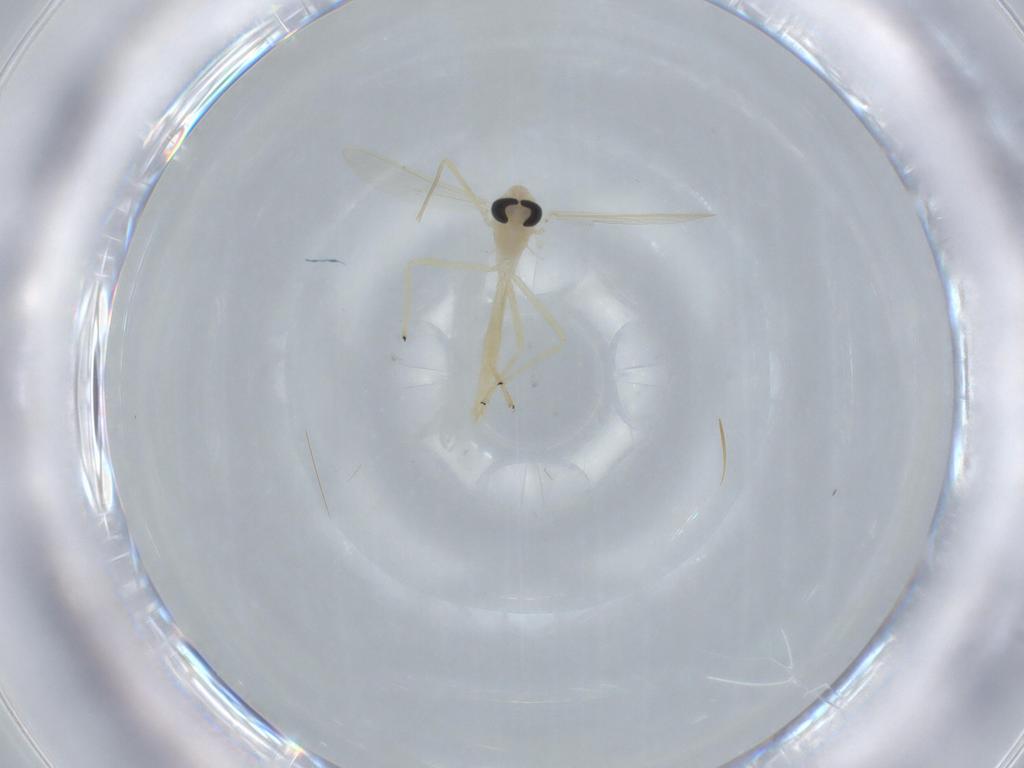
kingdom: Animalia
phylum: Arthropoda
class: Insecta
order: Diptera
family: Chironomidae
